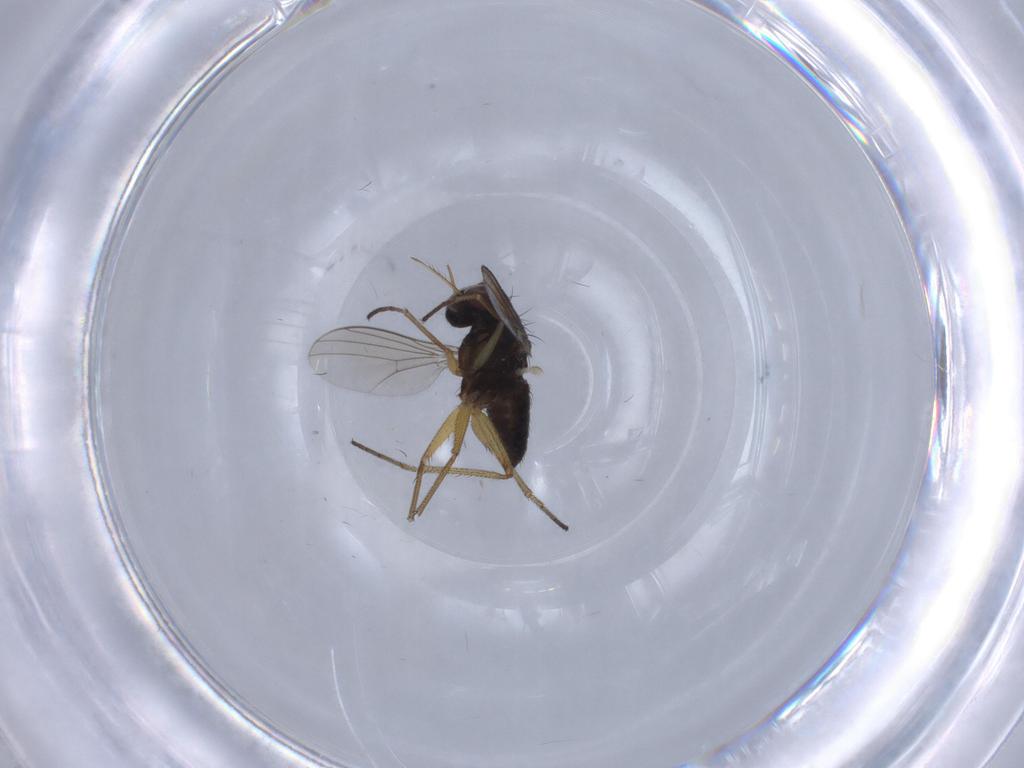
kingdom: Animalia
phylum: Arthropoda
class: Insecta
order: Diptera
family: Dolichopodidae
